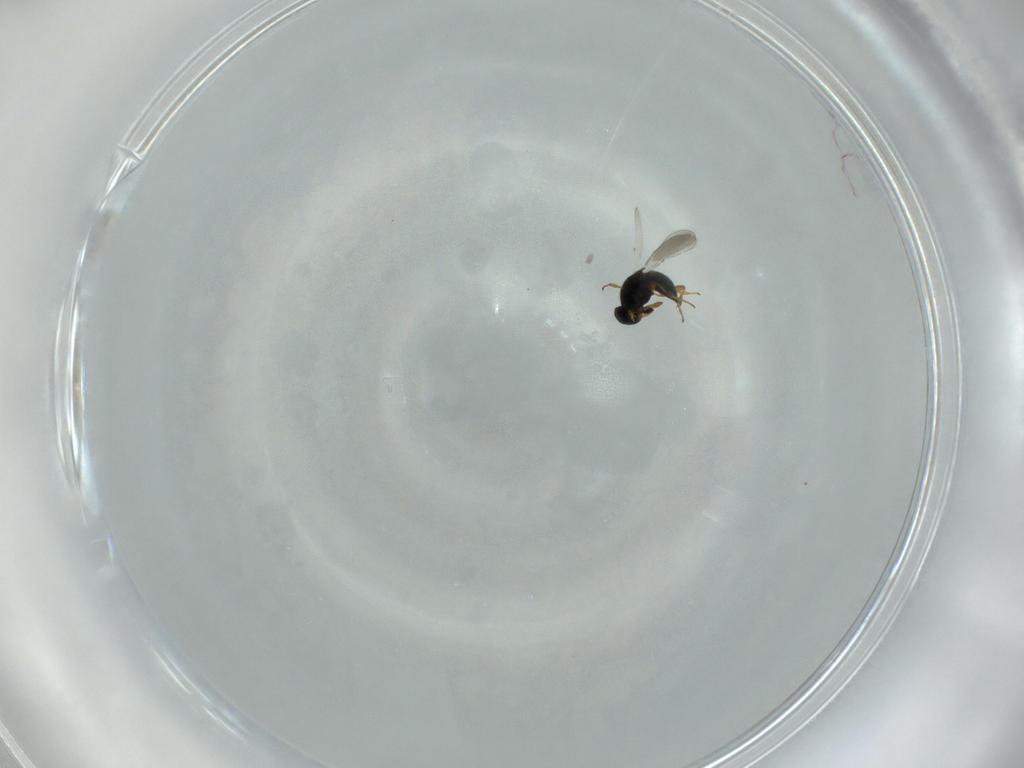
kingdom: Animalia
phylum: Arthropoda
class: Insecta
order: Hymenoptera
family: Platygastridae
